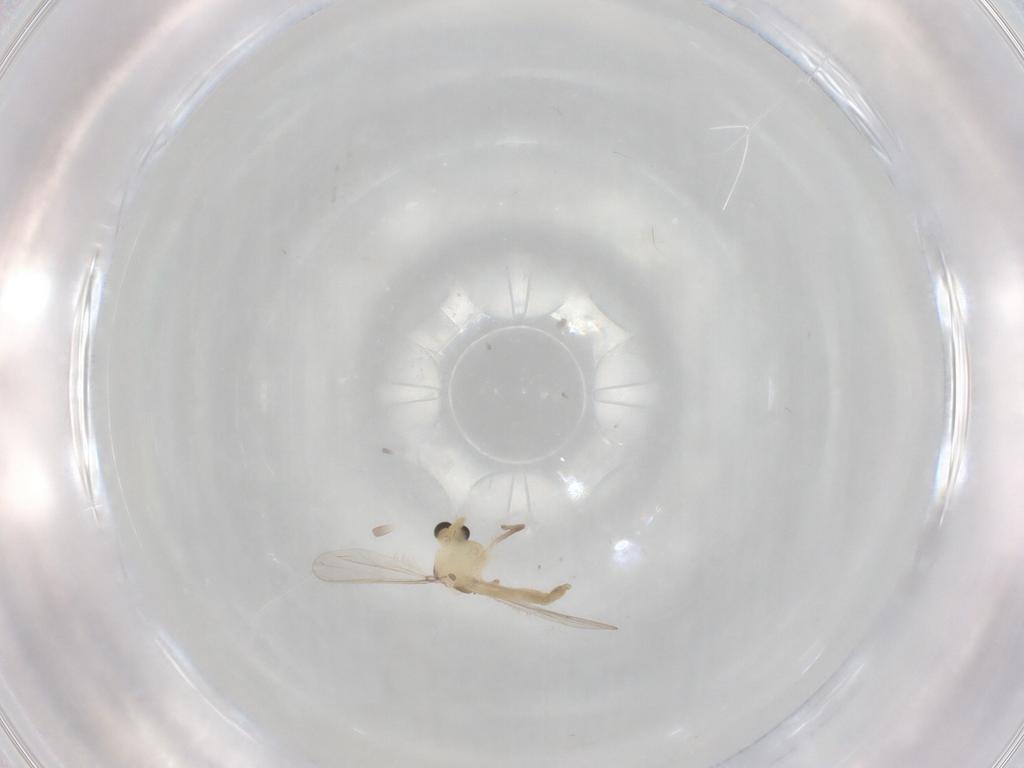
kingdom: Animalia
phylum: Arthropoda
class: Insecta
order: Diptera
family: Chironomidae
